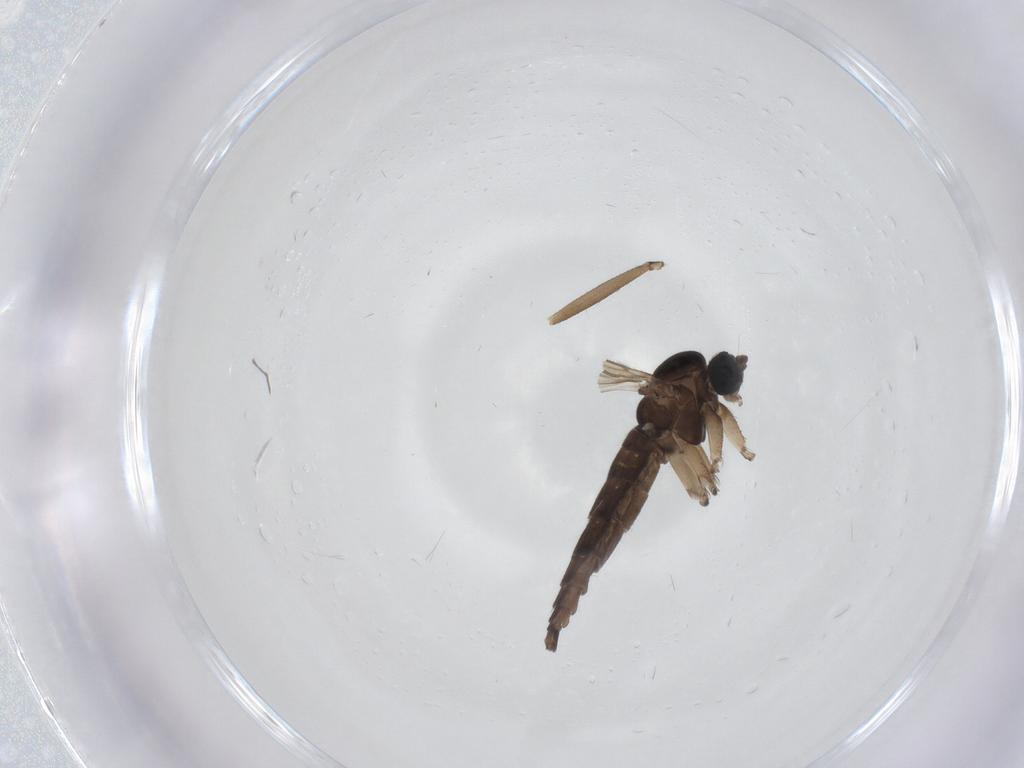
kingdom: Animalia
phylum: Arthropoda
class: Insecta
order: Diptera
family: Sciaridae
